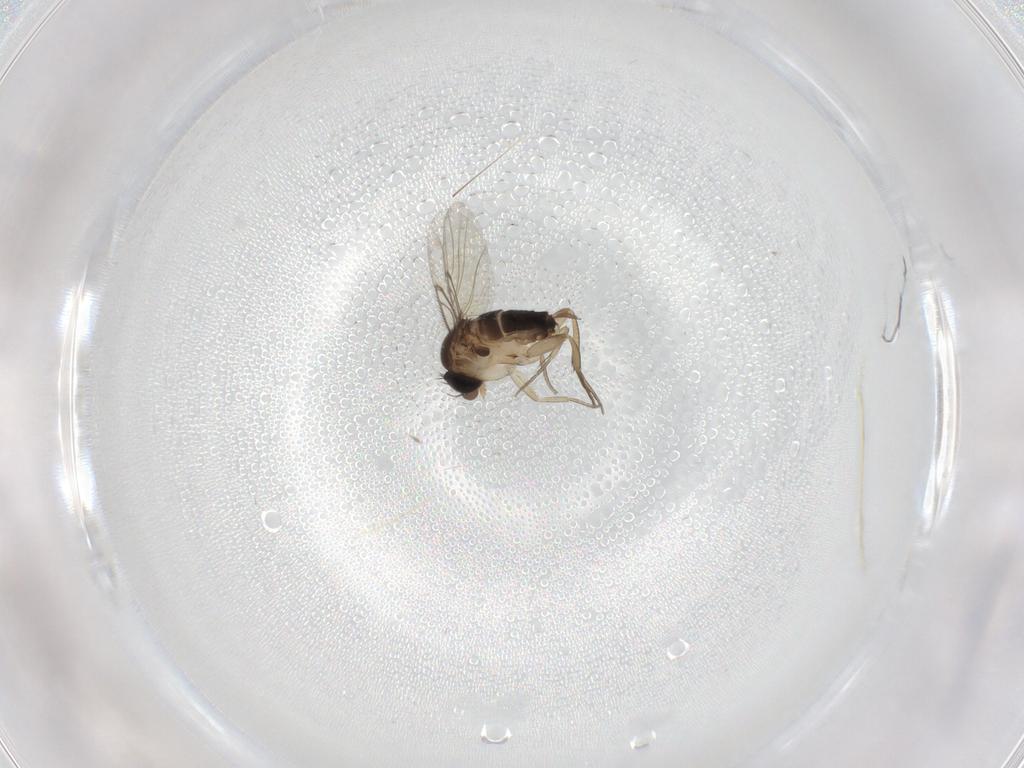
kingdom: Animalia
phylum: Arthropoda
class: Insecta
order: Diptera
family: Phoridae
